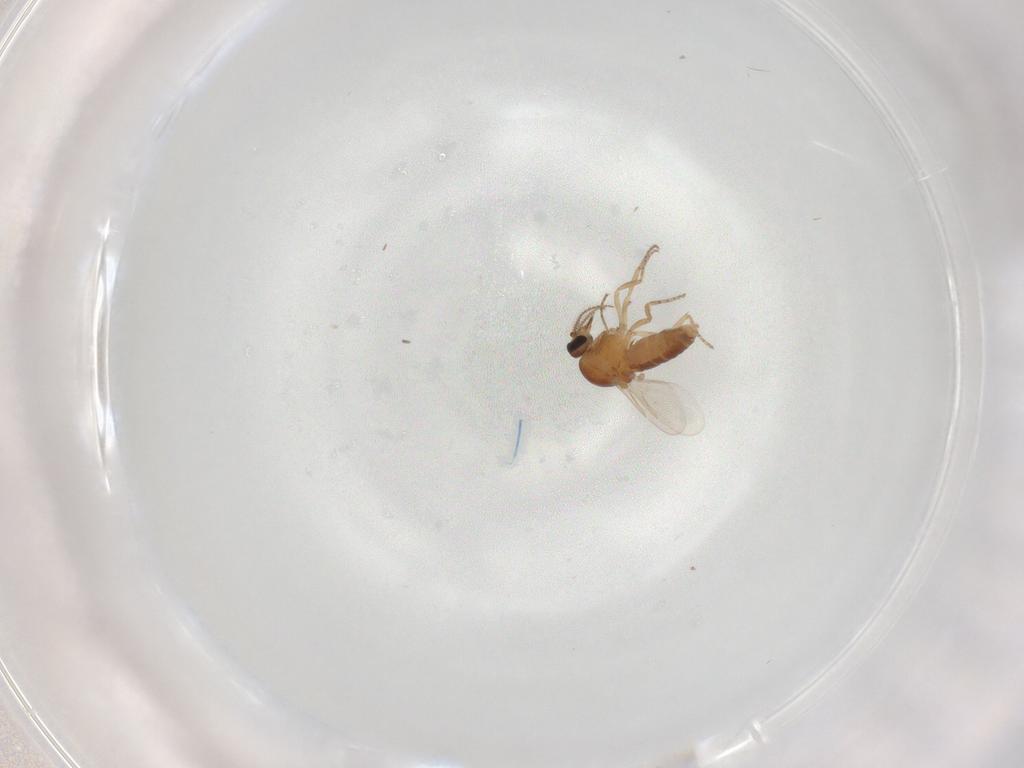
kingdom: Animalia
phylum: Arthropoda
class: Insecta
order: Diptera
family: Ceratopogonidae
